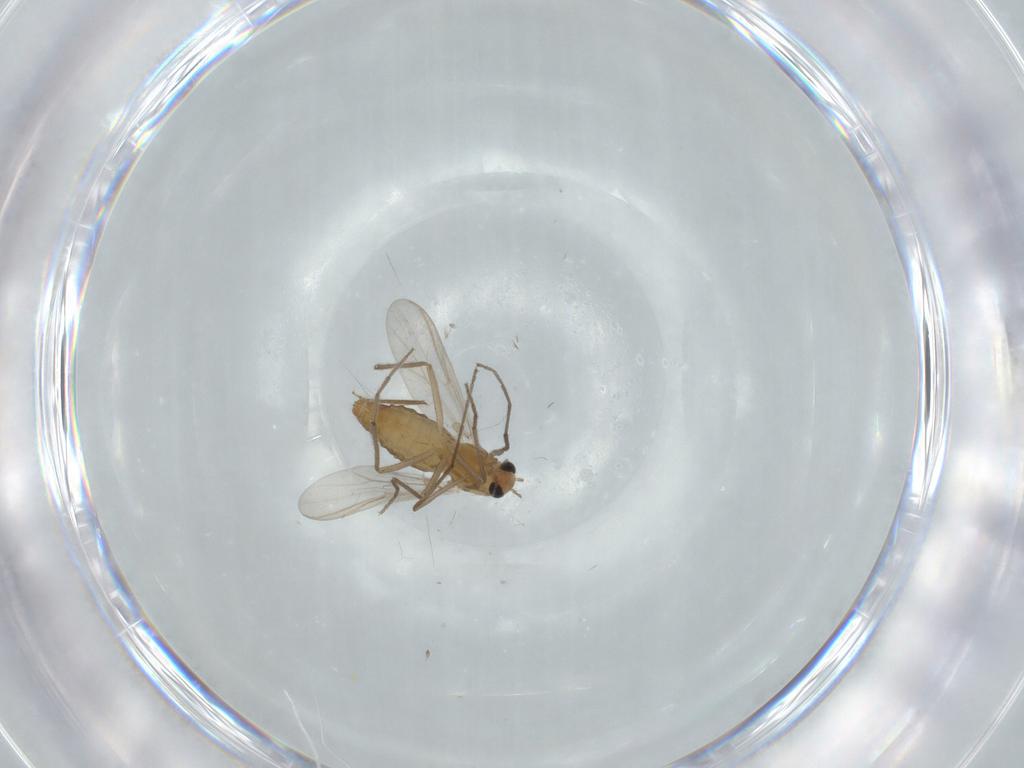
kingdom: Animalia
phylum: Arthropoda
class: Insecta
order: Diptera
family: Chironomidae
